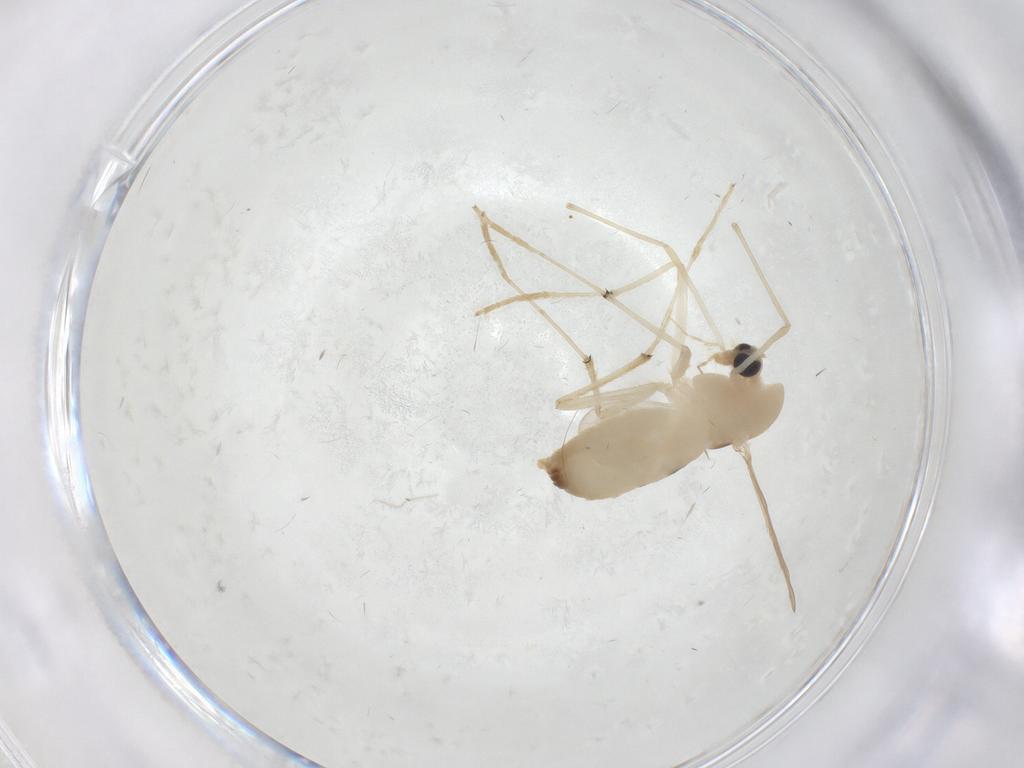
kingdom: Animalia
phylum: Arthropoda
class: Insecta
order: Diptera
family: Chironomidae
